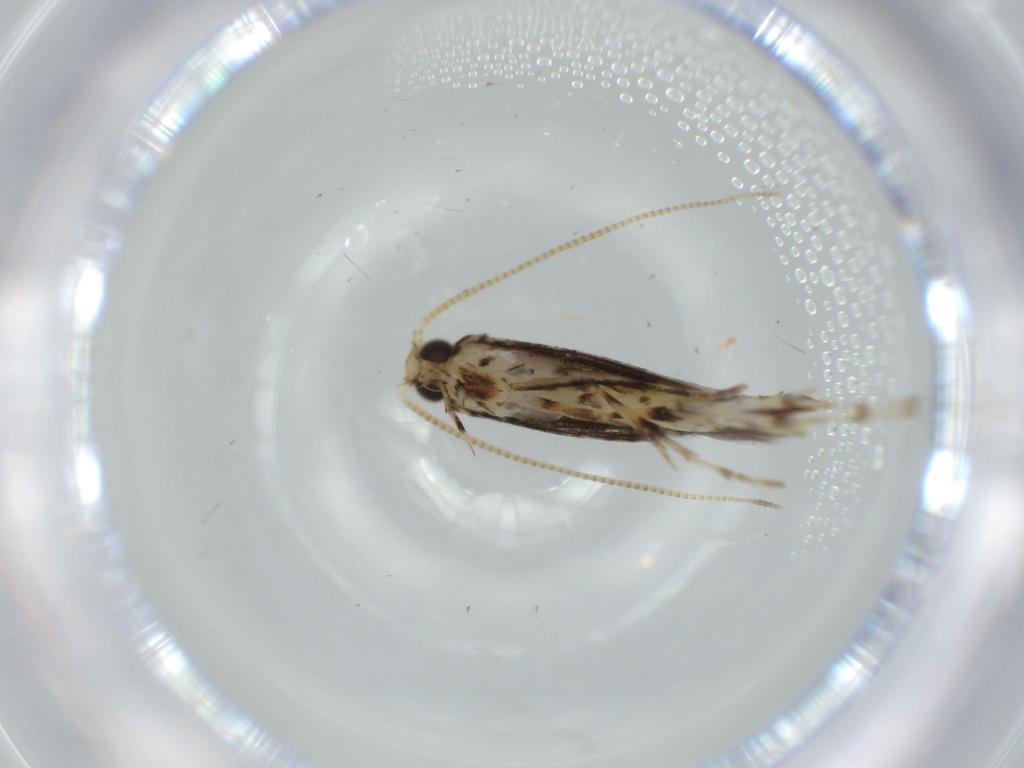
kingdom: Animalia
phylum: Arthropoda
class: Insecta
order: Lepidoptera
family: Gracillariidae
